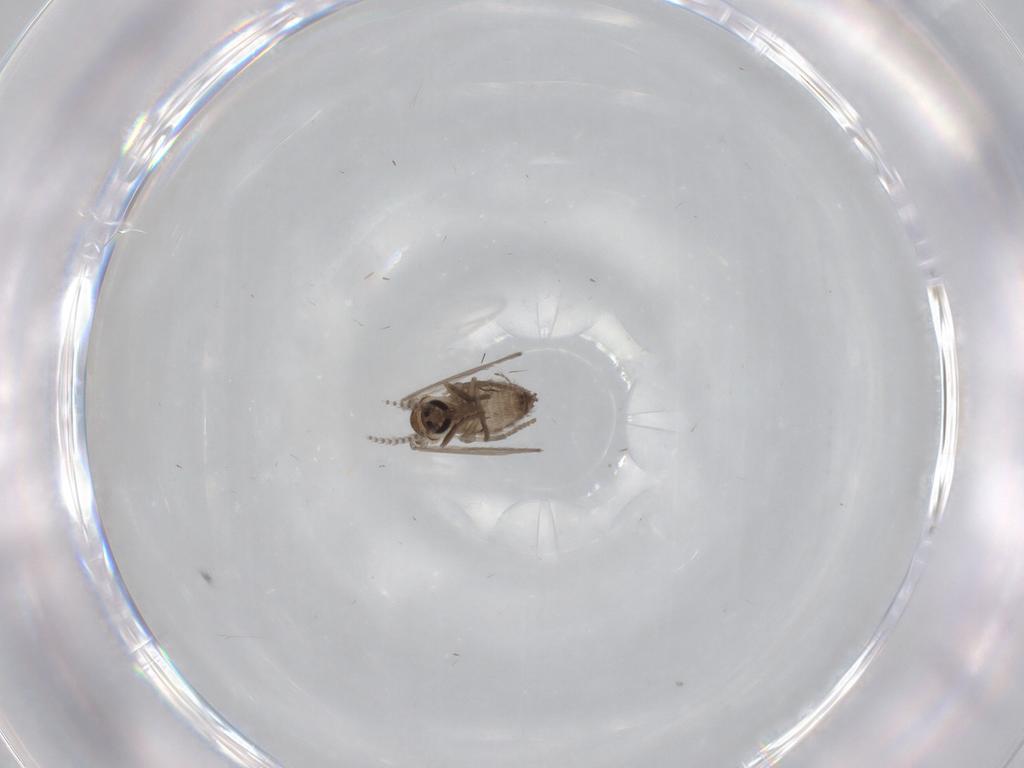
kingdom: Animalia
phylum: Arthropoda
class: Insecta
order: Diptera
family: Psychodidae
